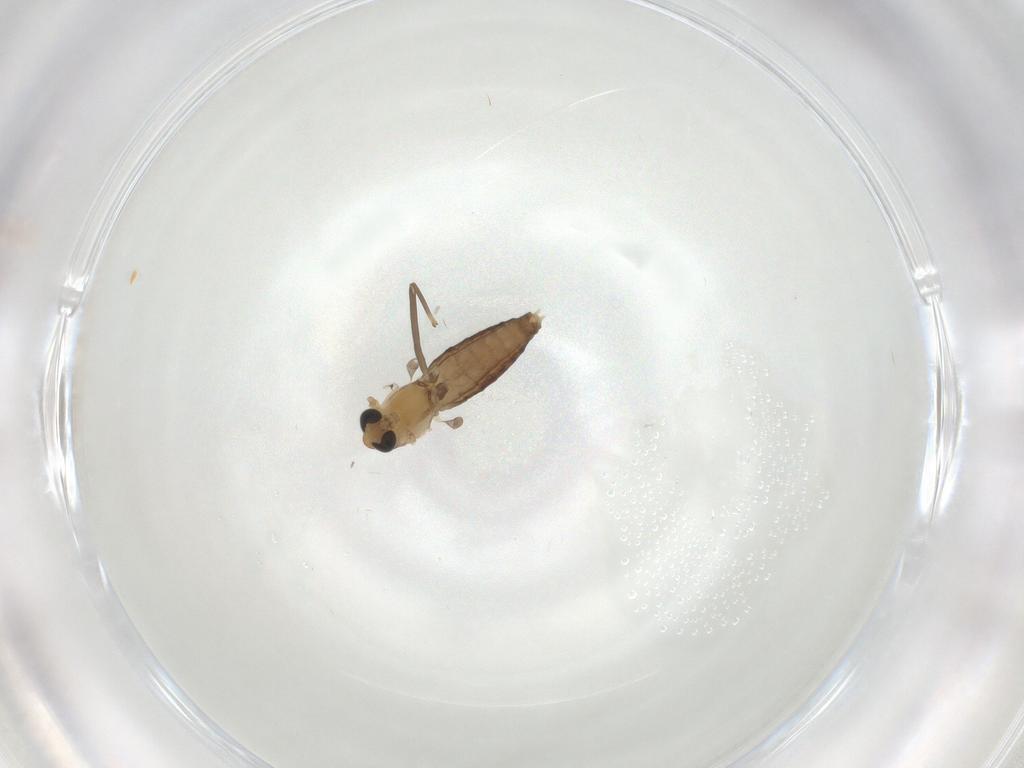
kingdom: Animalia
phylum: Arthropoda
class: Insecta
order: Diptera
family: Chironomidae
